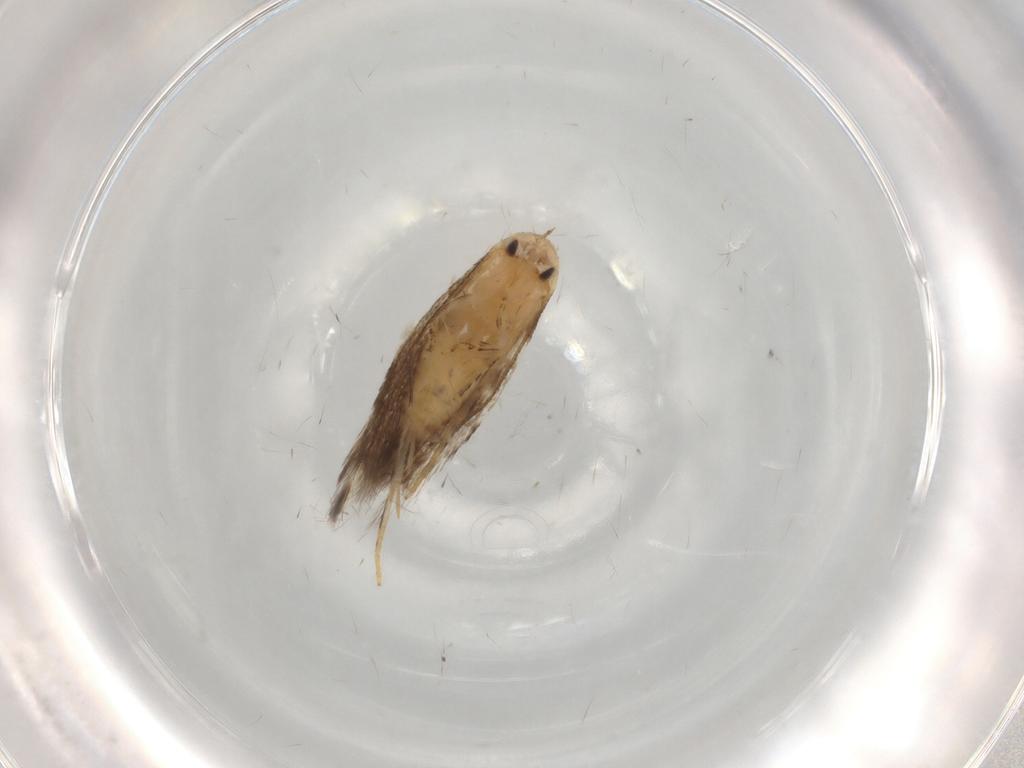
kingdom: Animalia
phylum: Arthropoda
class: Insecta
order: Lepidoptera
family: Elachistidae
